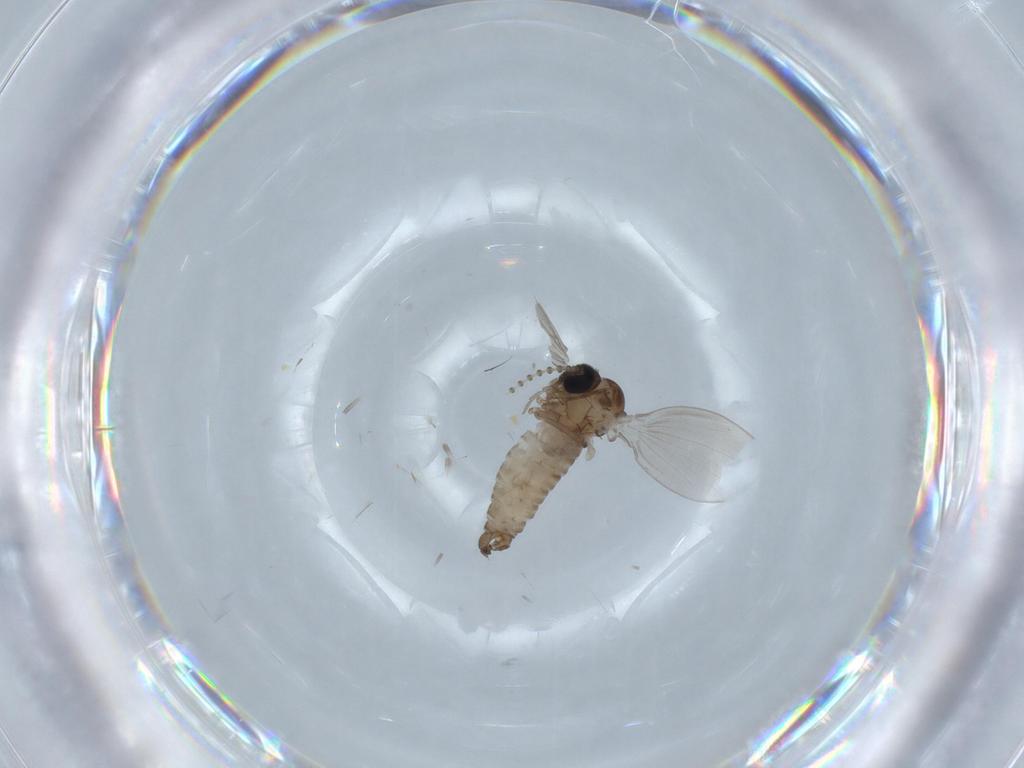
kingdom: Animalia
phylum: Arthropoda
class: Insecta
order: Diptera
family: Psychodidae
